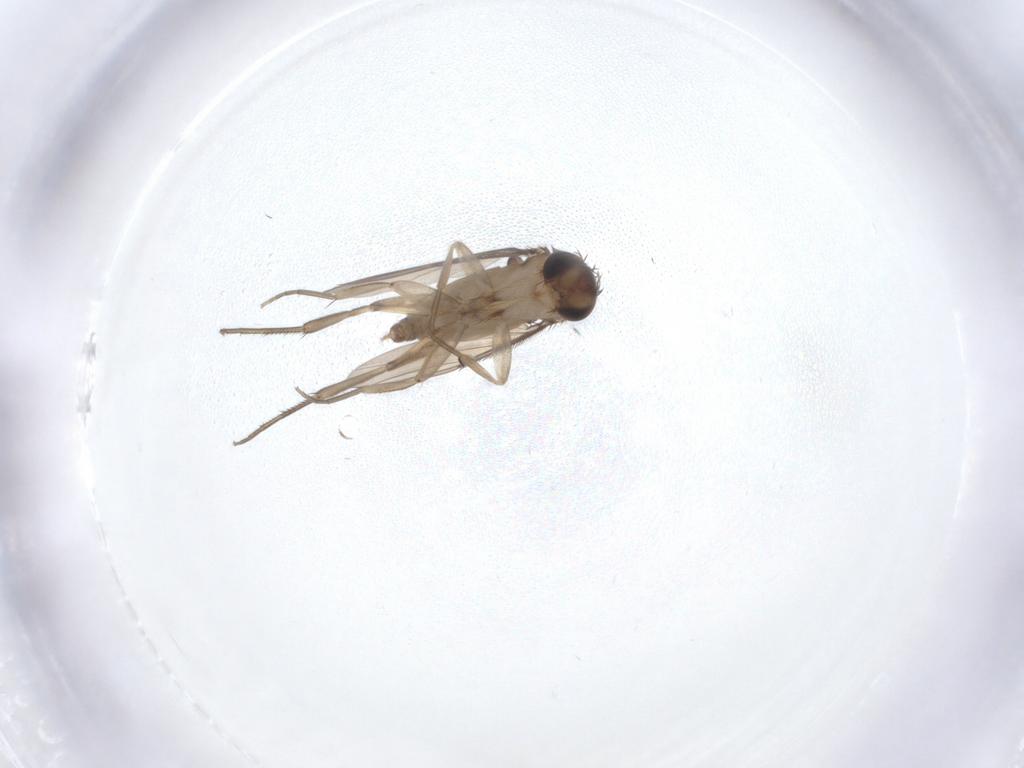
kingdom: Animalia
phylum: Arthropoda
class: Insecta
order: Diptera
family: Phoridae
